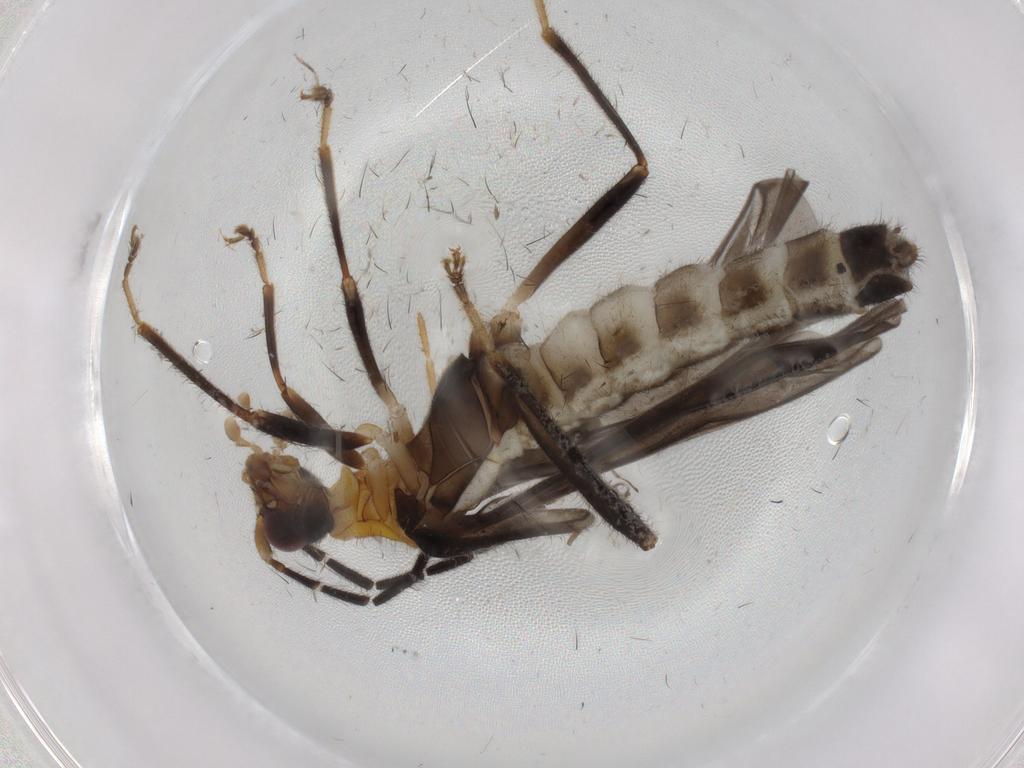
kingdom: Animalia
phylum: Arthropoda
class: Insecta
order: Coleoptera
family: Cantharidae
